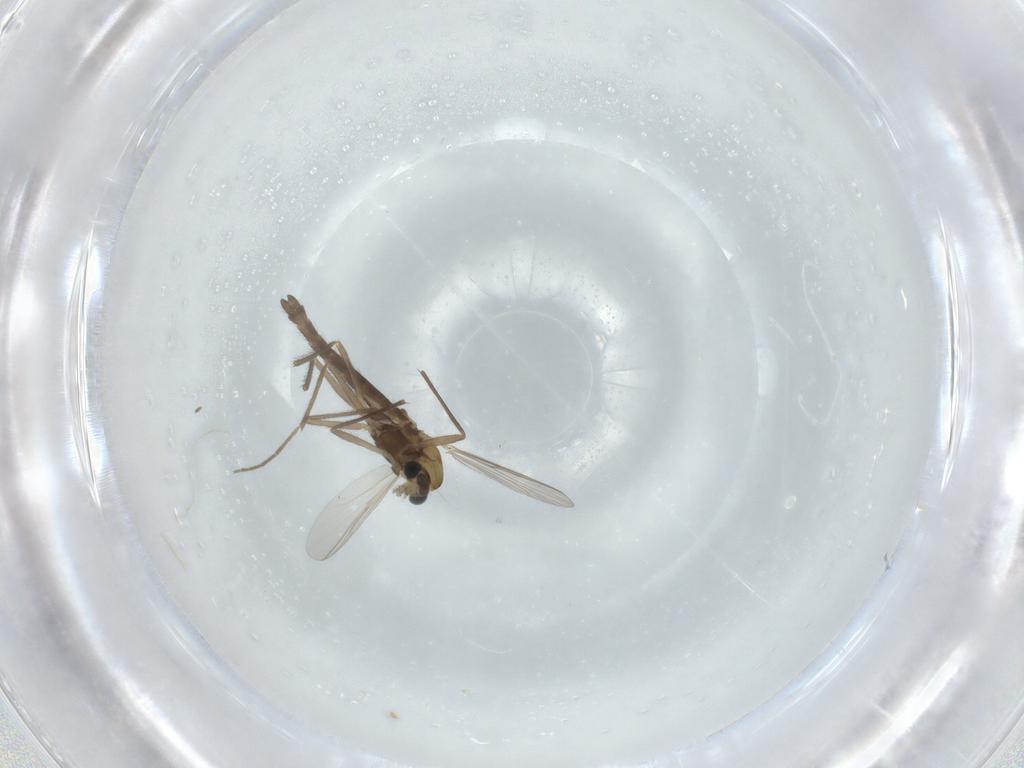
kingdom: Animalia
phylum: Arthropoda
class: Insecta
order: Diptera
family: Chironomidae
